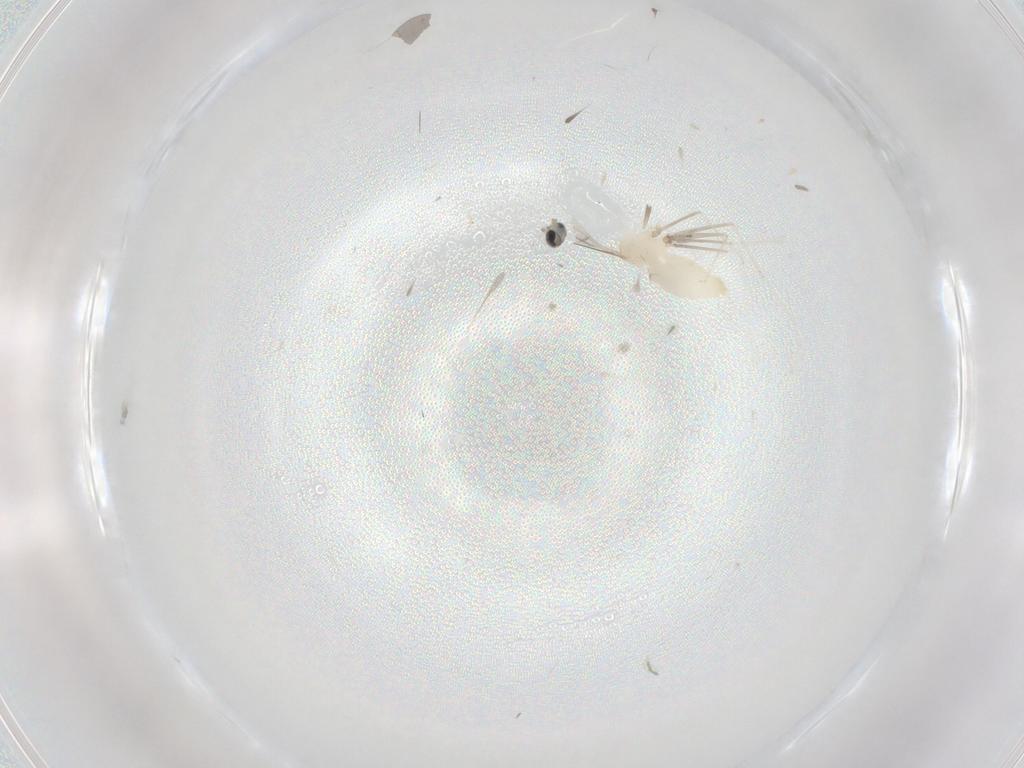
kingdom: Animalia
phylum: Arthropoda
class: Insecta
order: Diptera
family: Cecidomyiidae
